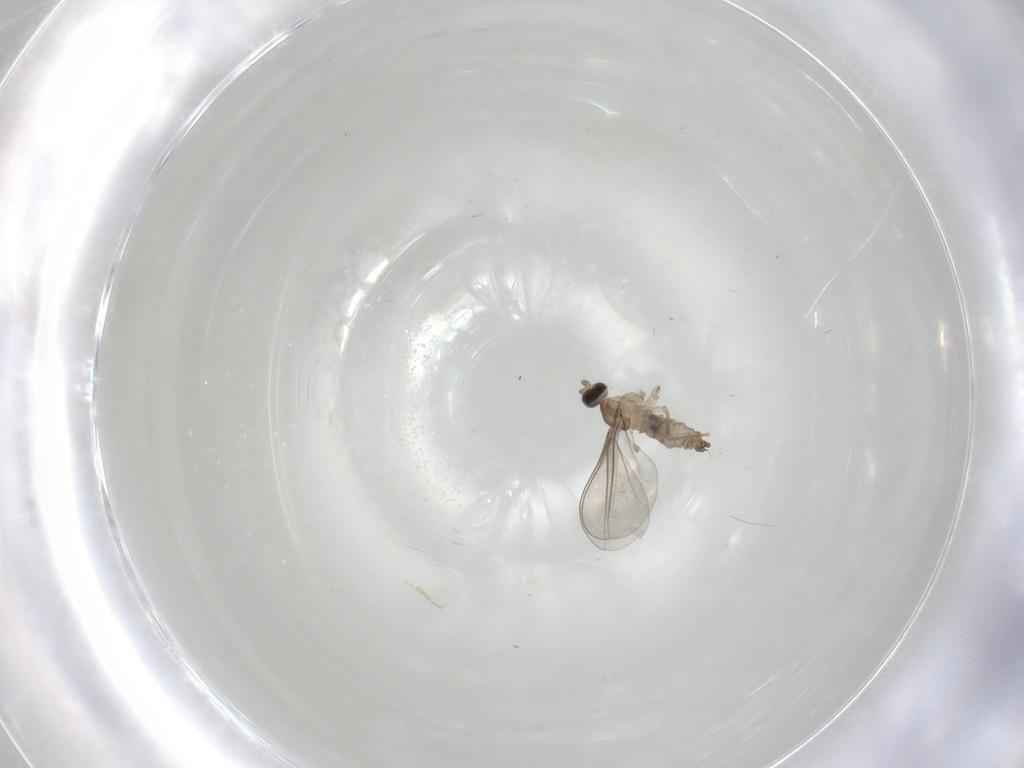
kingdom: Animalia
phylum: Arthropoda
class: Insecta
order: Diptera
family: Cecidomyiidae
